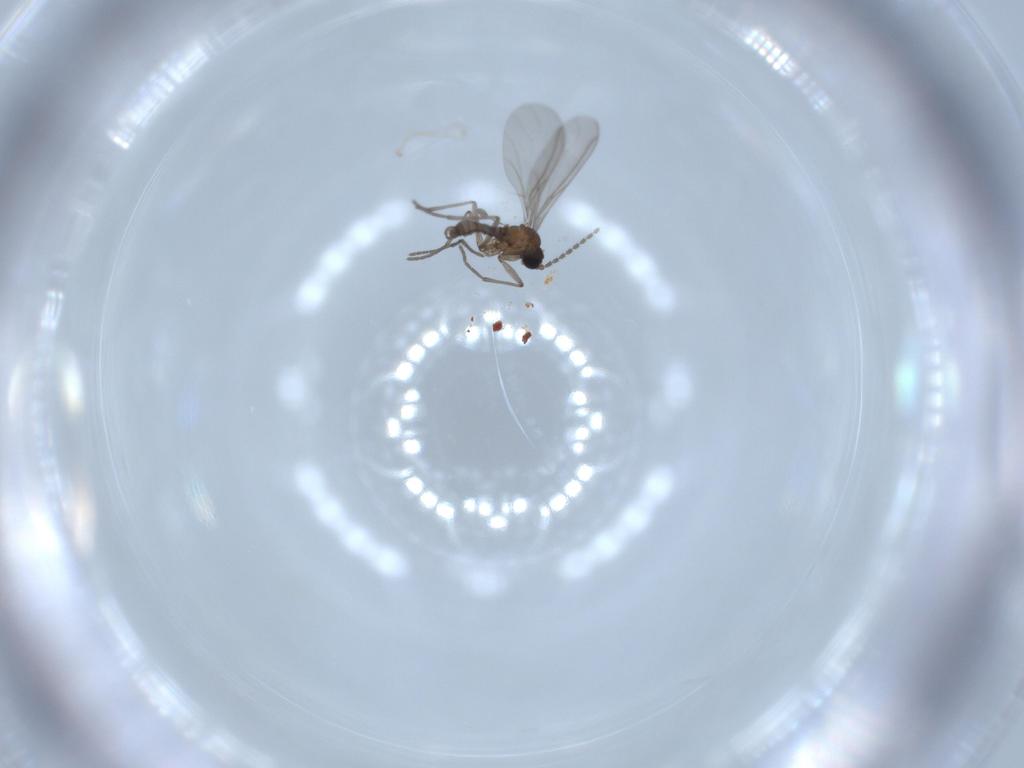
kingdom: Animalia
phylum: Arthropoda
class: Insecta
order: Diptera
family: Sciaridae
